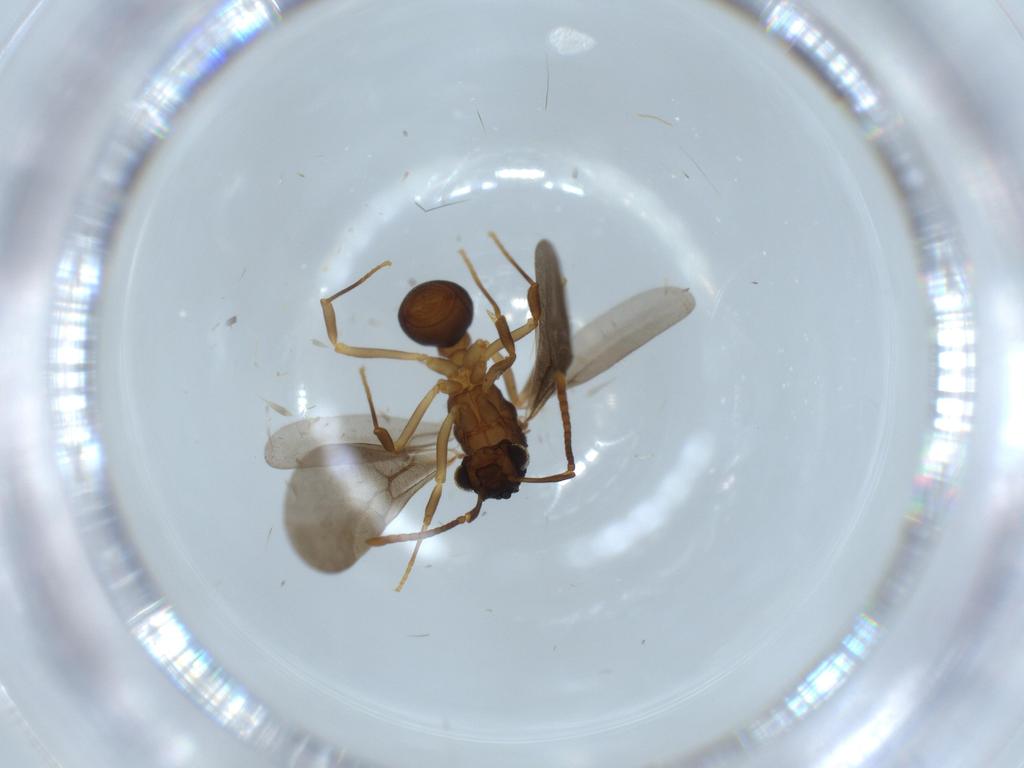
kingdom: Animalia
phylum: Arthropoda
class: Insecta
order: Hymenoptera
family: Formicidae
